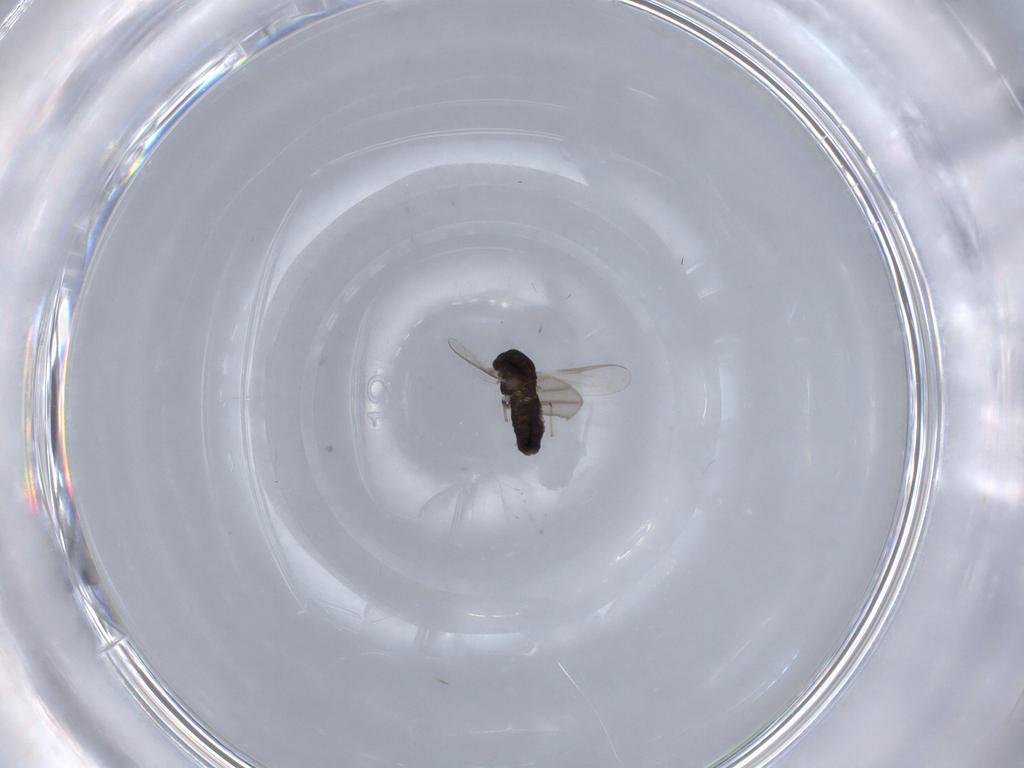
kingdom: Animalia
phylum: Arthropoda
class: Insecta
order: Diptera
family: Chironomidae
